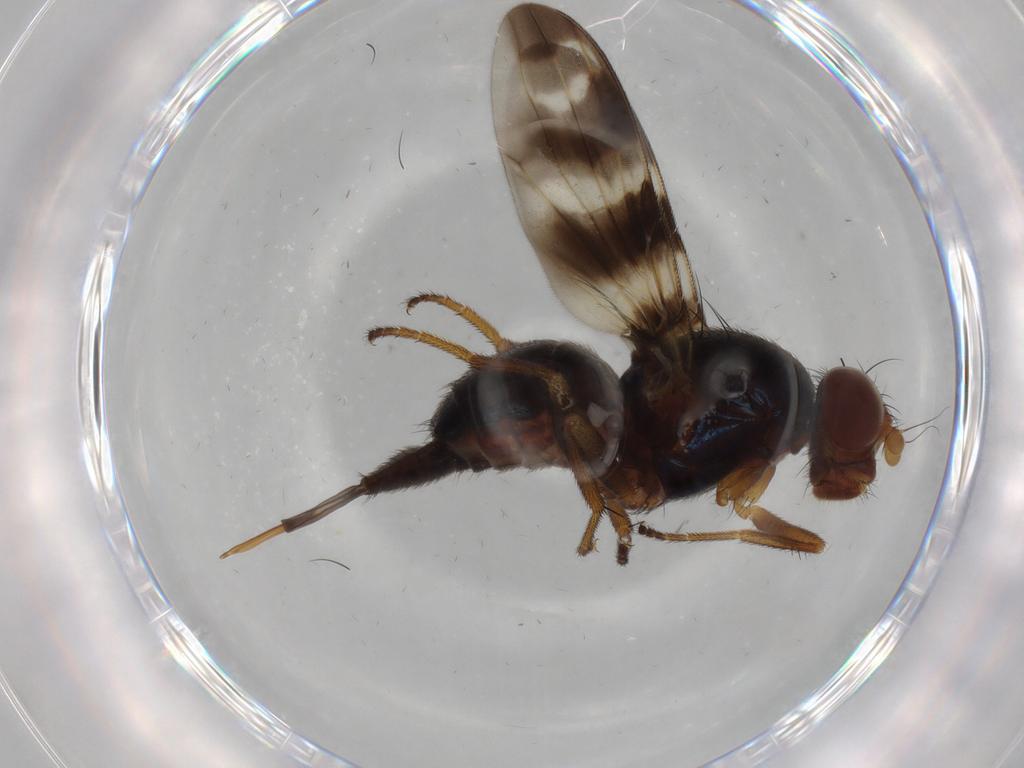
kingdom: Animalia
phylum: Arthropoda
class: Insecta
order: Diptera
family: Ulidiidae
